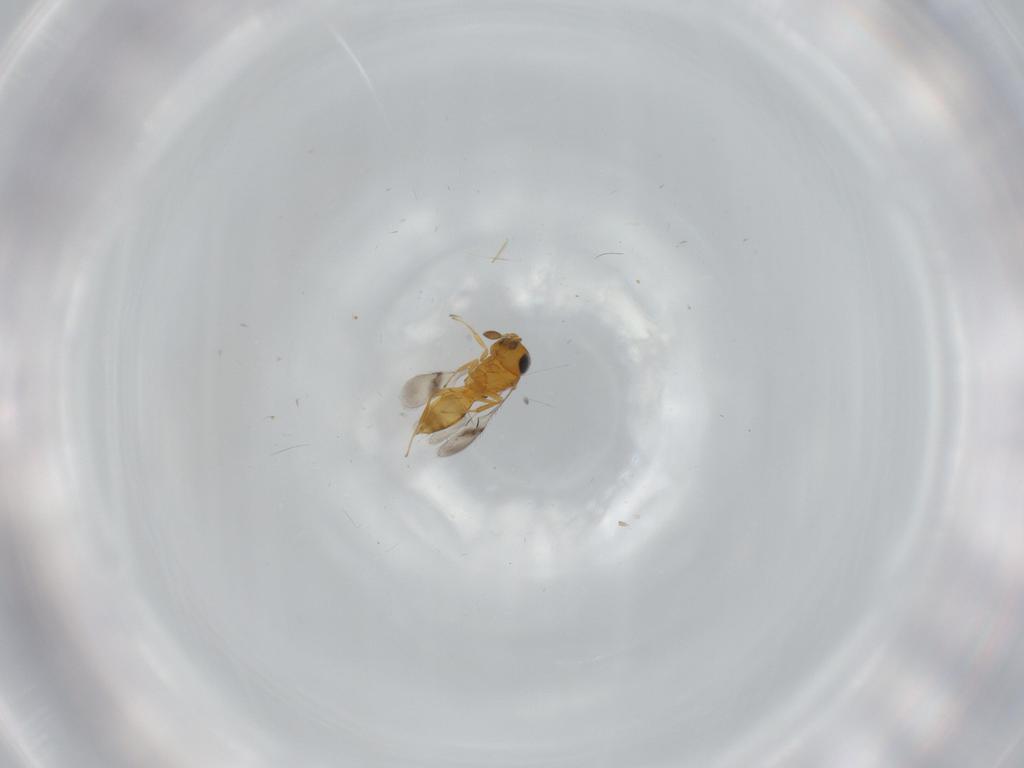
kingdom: Animalia
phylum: Arthropoda
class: Insecta
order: Hymenoptera
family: Scelionidae
